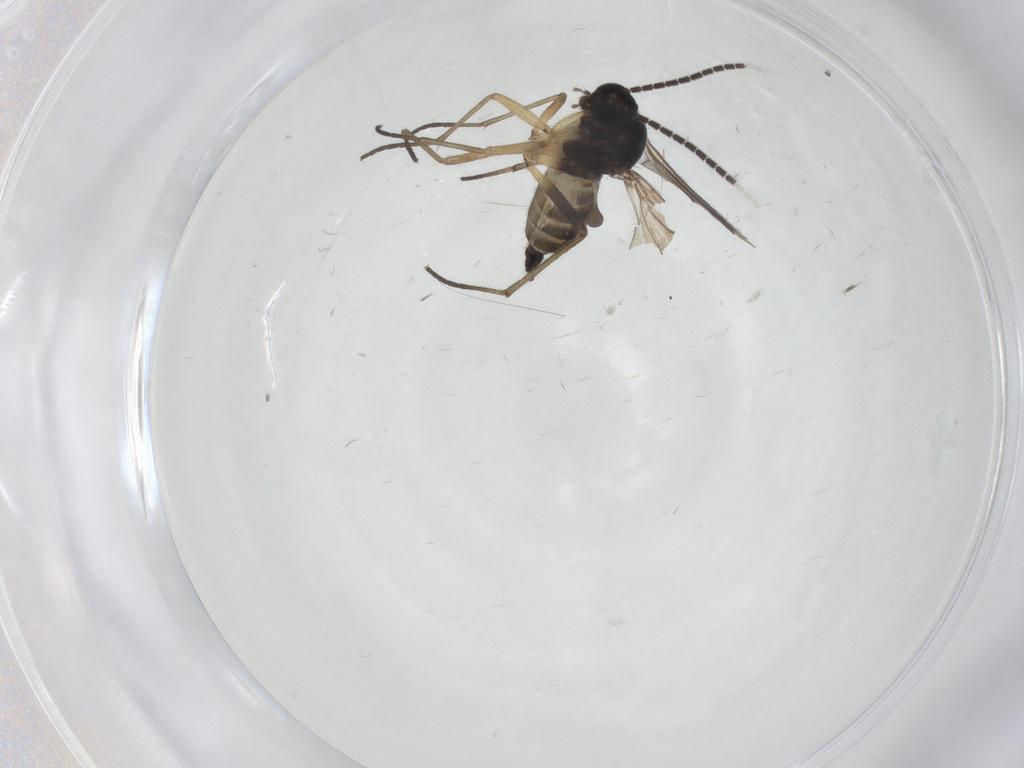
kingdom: Animalia
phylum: Arthropoda
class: Insecta
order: Diptera
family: Sciaridae
